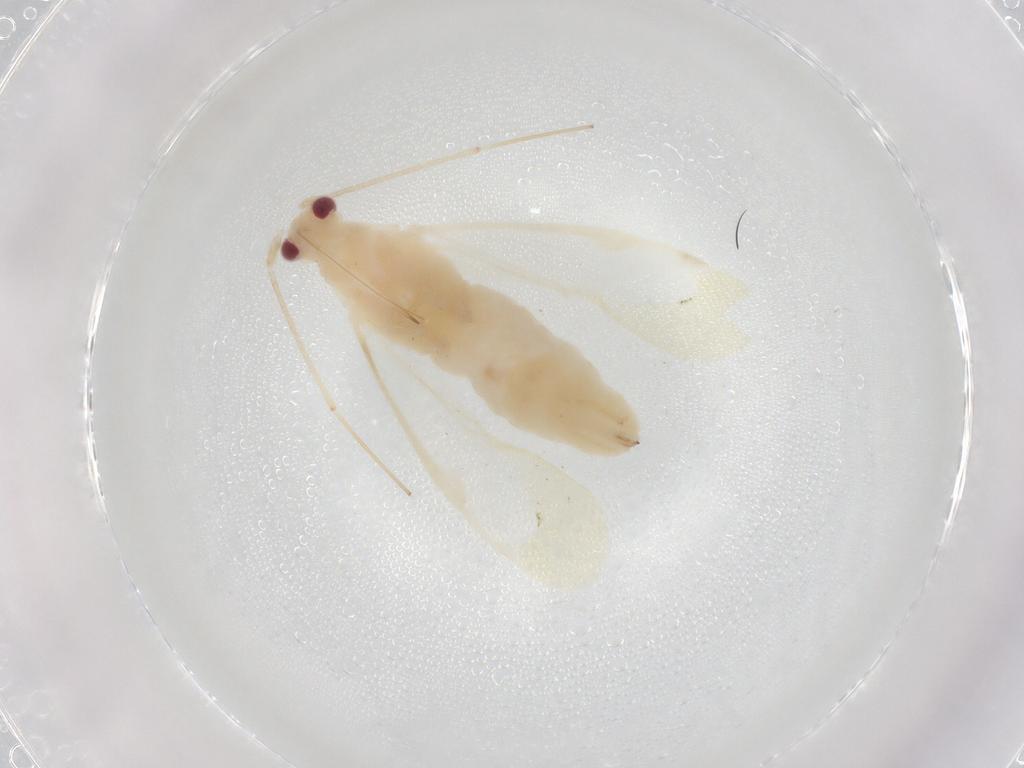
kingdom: Animalia
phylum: Arthropoda
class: Insecta
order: Hemiptera
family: Miridae
